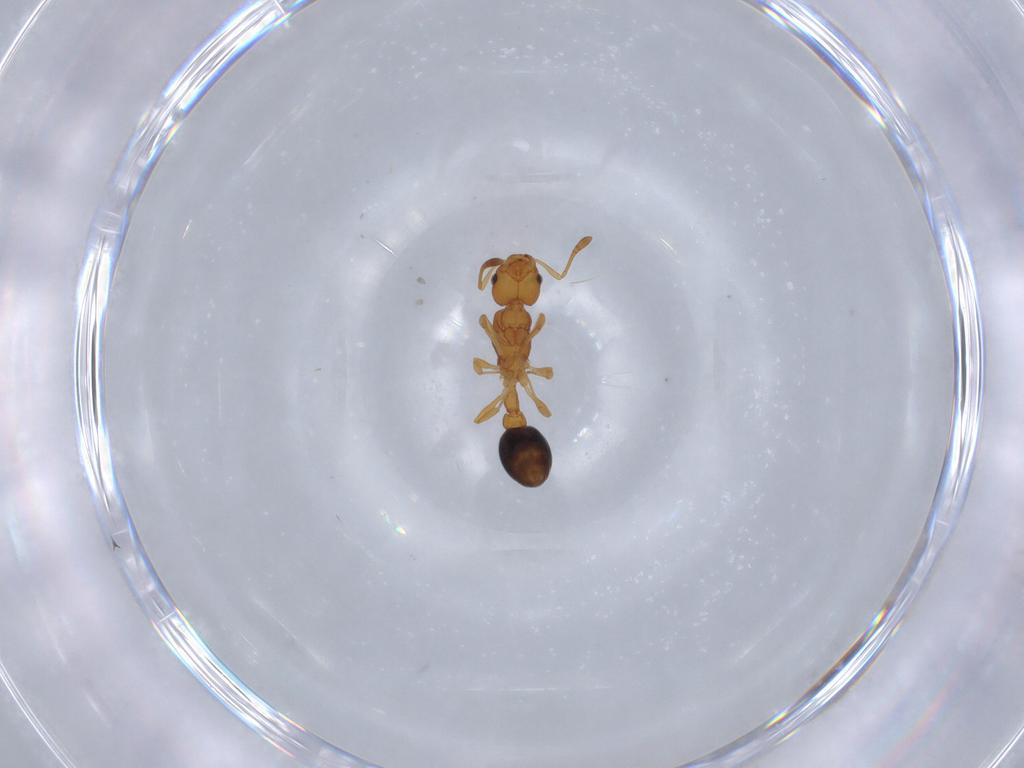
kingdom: Animalia
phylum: Arthropoda
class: Insecta
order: Hymenoptera
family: Formicidae
